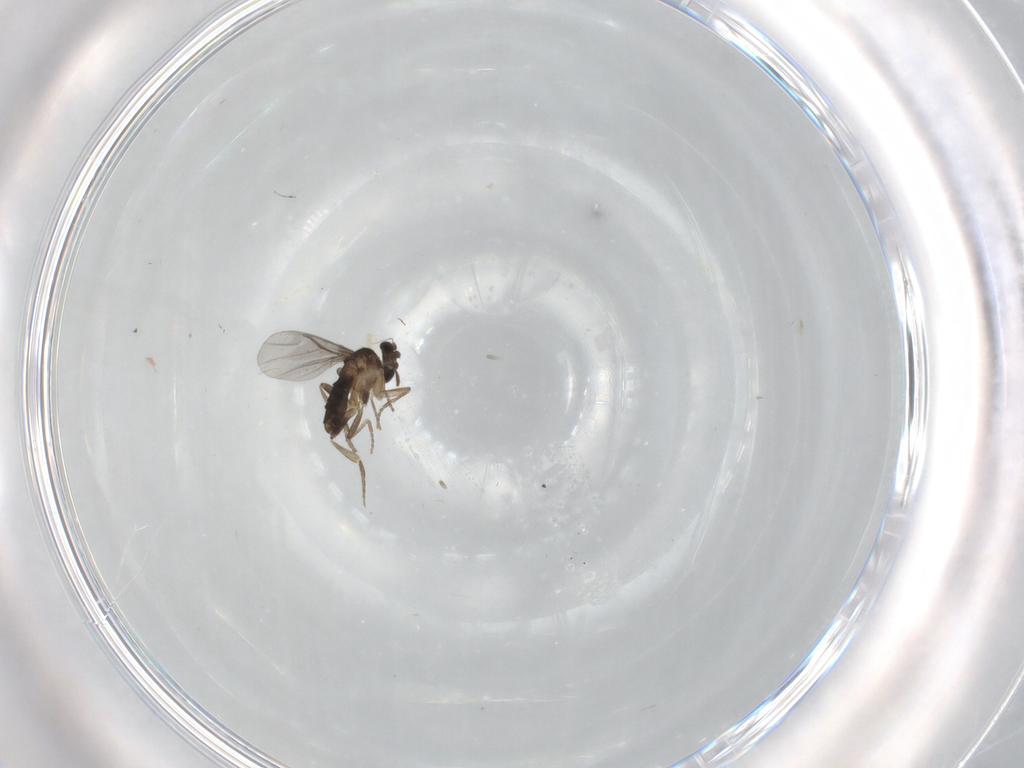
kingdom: Animalia
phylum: Arthropoda
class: Insecta
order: Diptera
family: Phoridae
